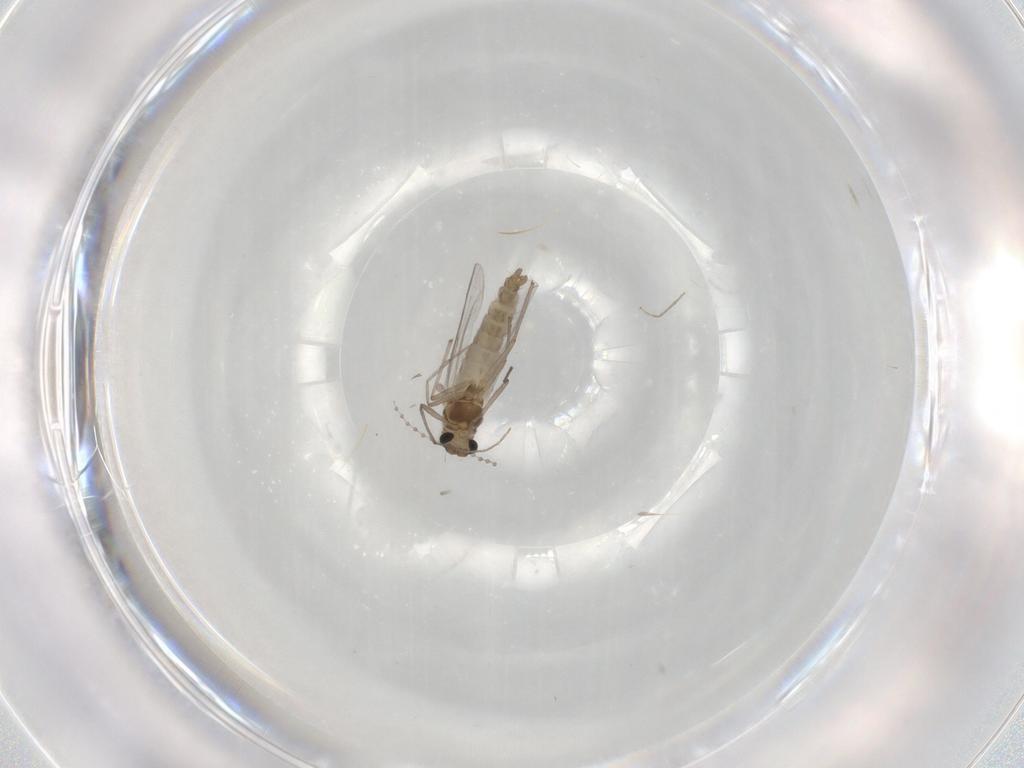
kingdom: Animalia
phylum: Arthropoda
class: Insecta
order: Diptera
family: Chironomidae
